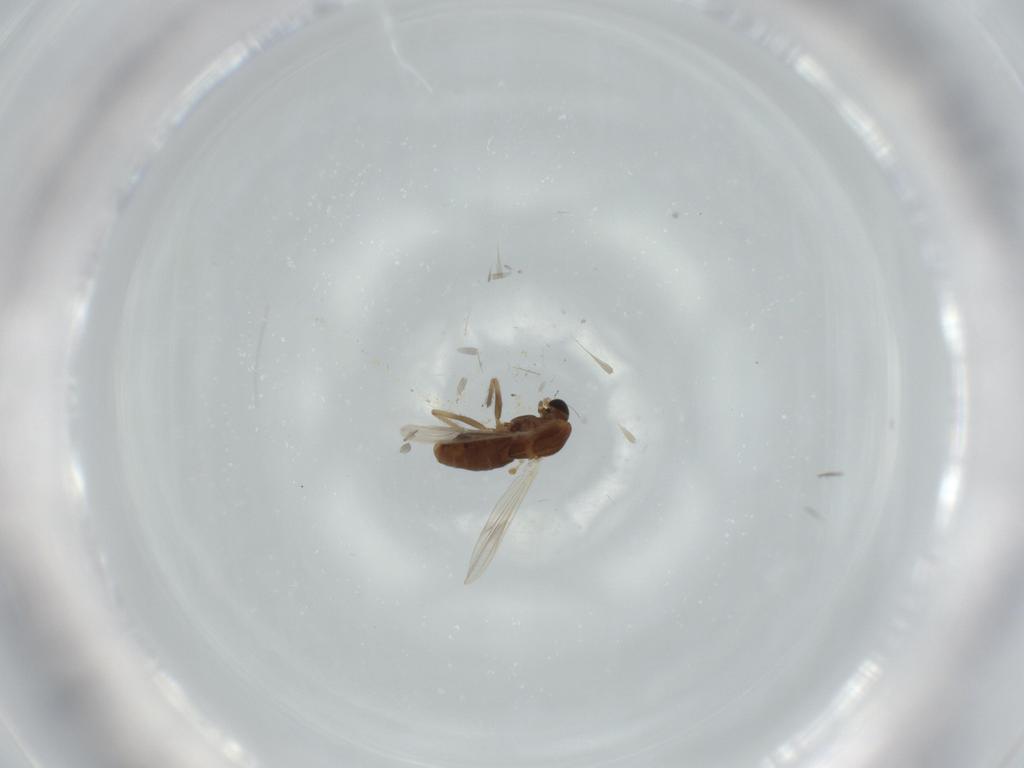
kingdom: Animalia
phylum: Arthropoda
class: Insecta
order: Diptera
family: Chironomidae
